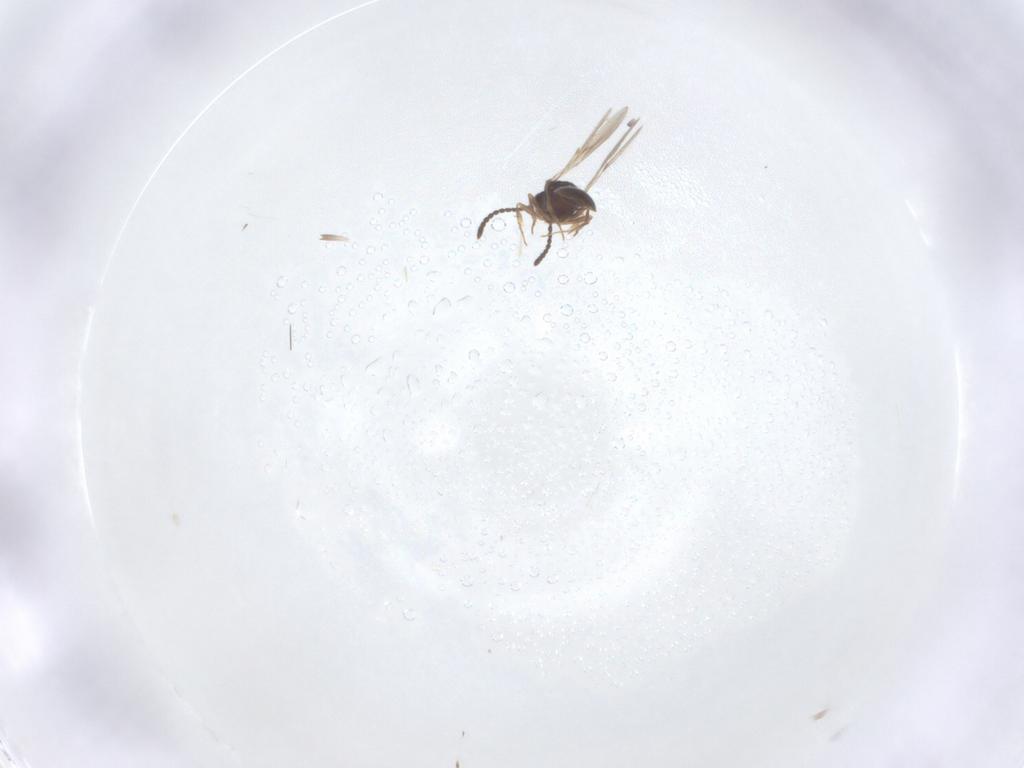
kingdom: Animalia
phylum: Arthropoda
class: Insecta
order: Hymenoptera
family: Scelionidae
